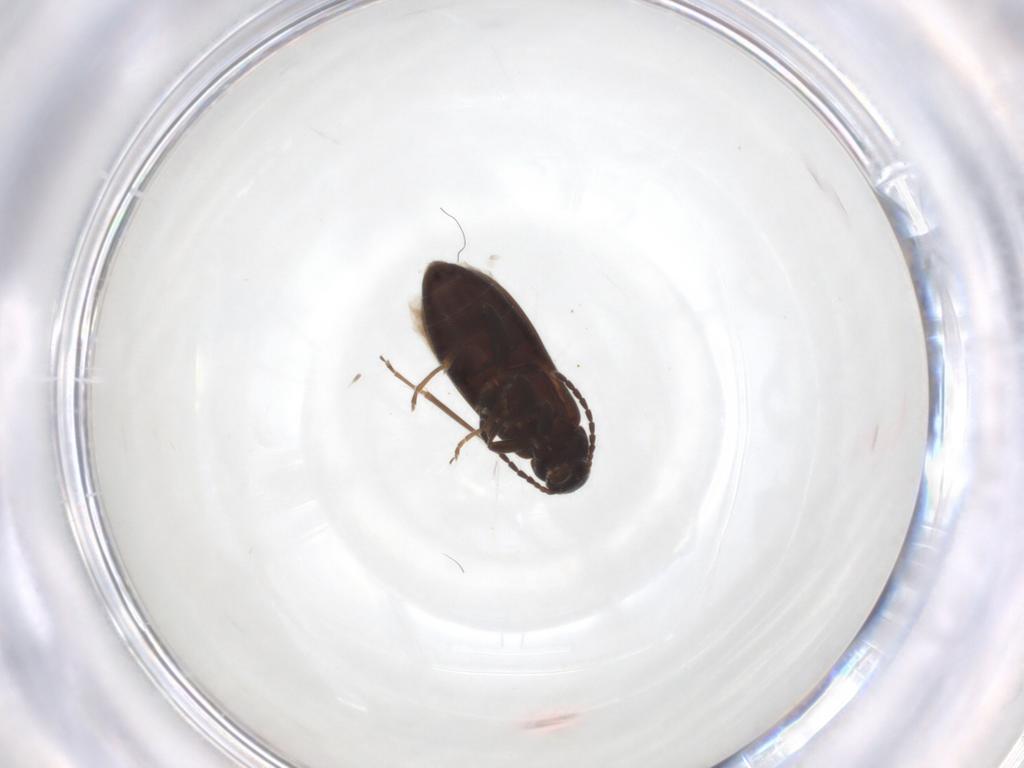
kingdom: Animalia
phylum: Arthropoda
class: Insecta
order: Coleoptera
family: Scraptiidae
